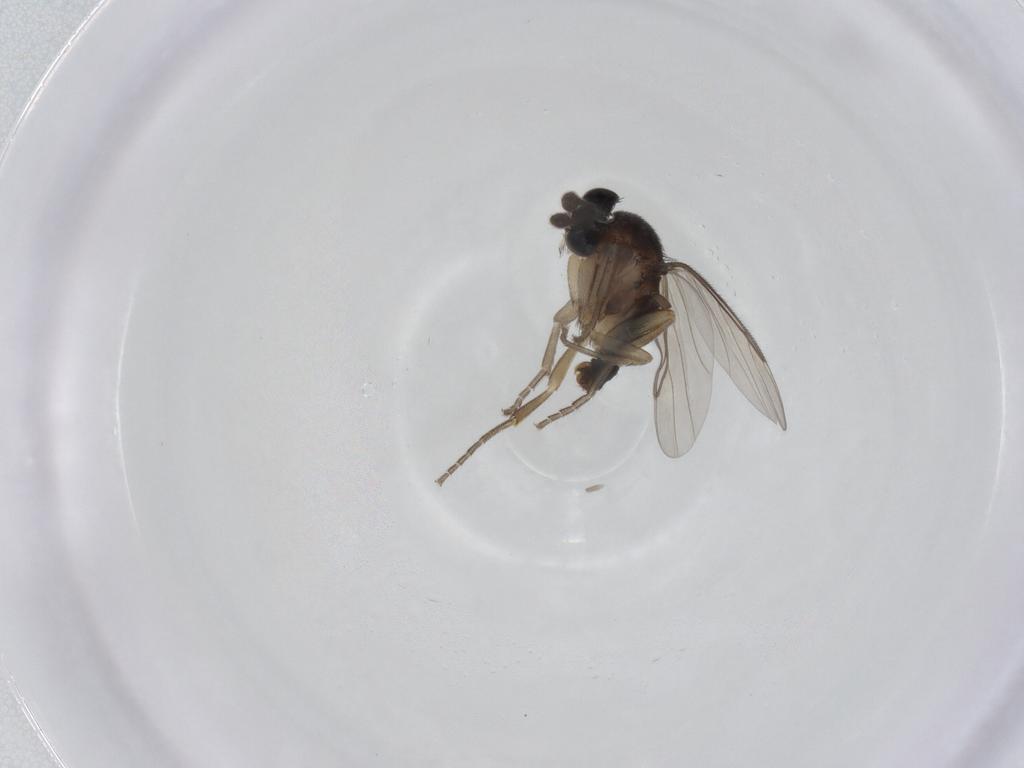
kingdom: Animalia
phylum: Arthropoda
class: Insecta
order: Diptera
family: Phoridae
